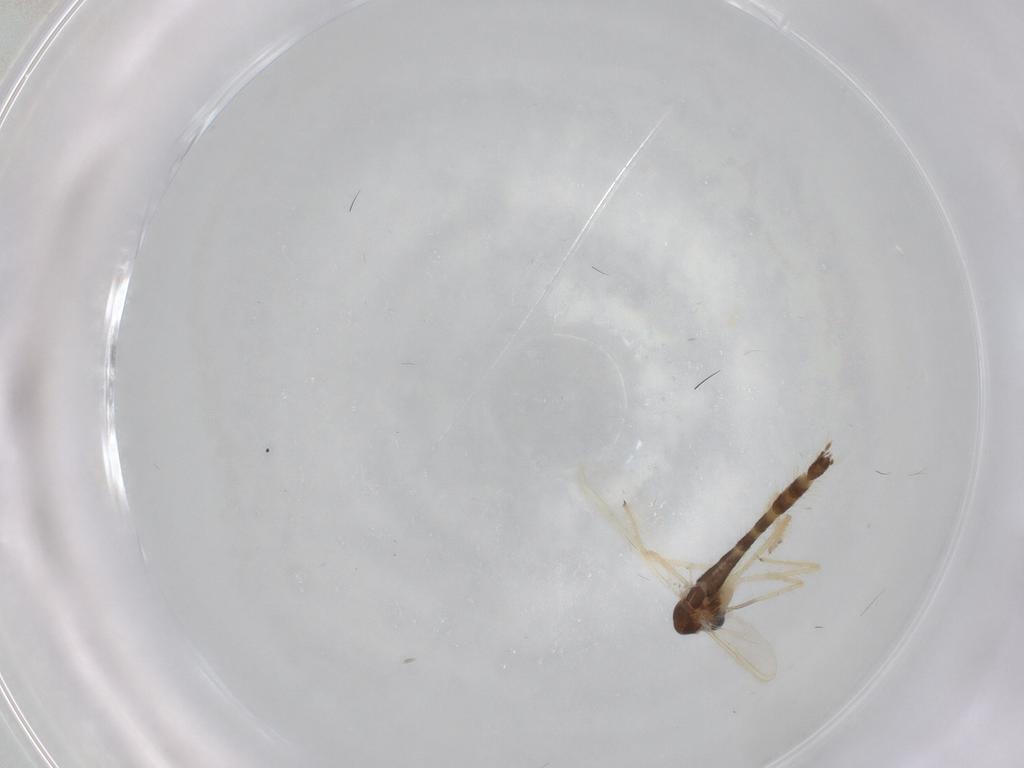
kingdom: Animalia
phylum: Arthropoda
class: Insecta
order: Diptera
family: Chironomidae
